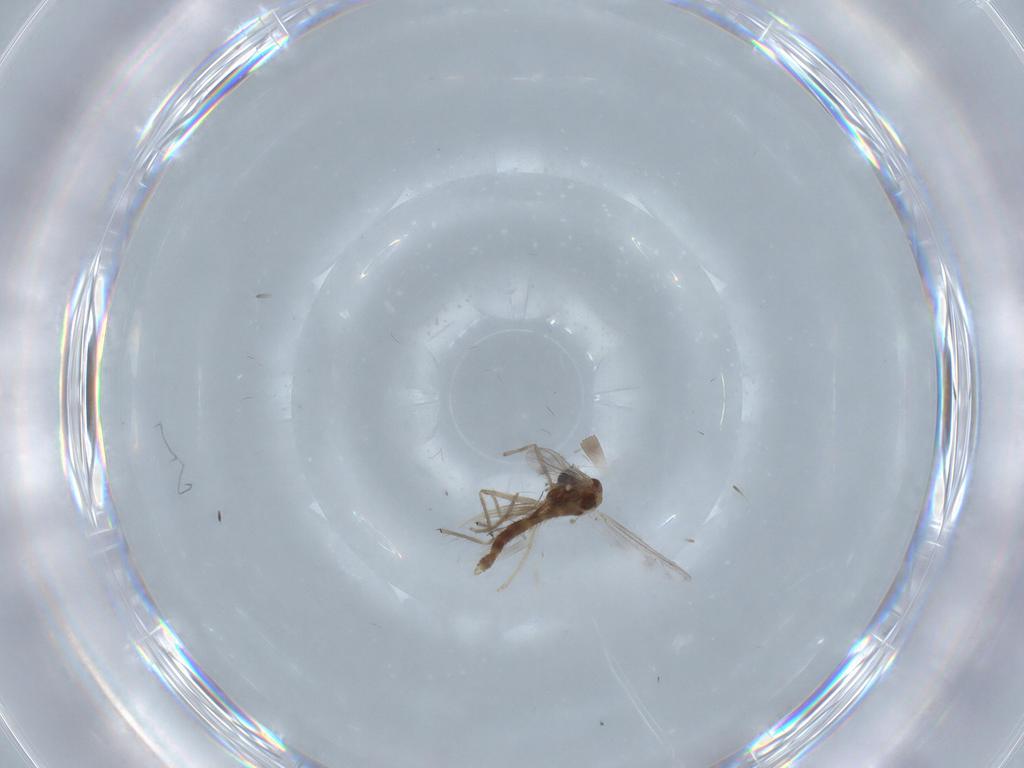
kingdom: Animalia
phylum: Arthropoda
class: Insecta
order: Diptera
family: Chironomidae
